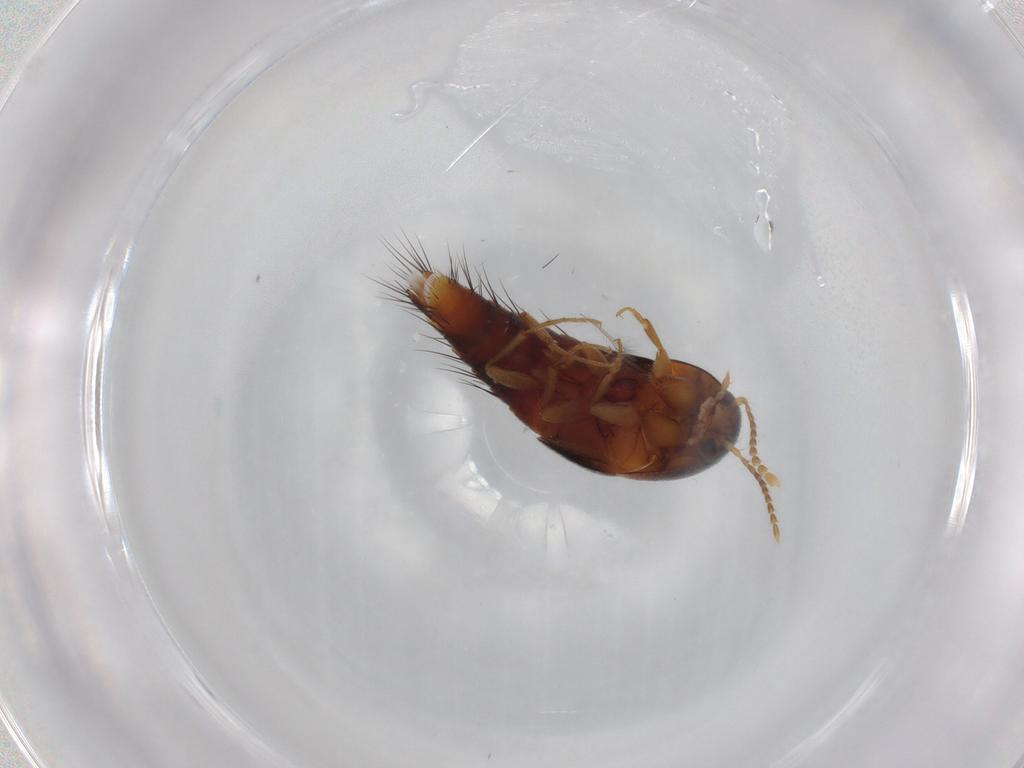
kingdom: Animalia
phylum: Arthropoda
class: Insecta
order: Coleoptera
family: Staphylinidae
